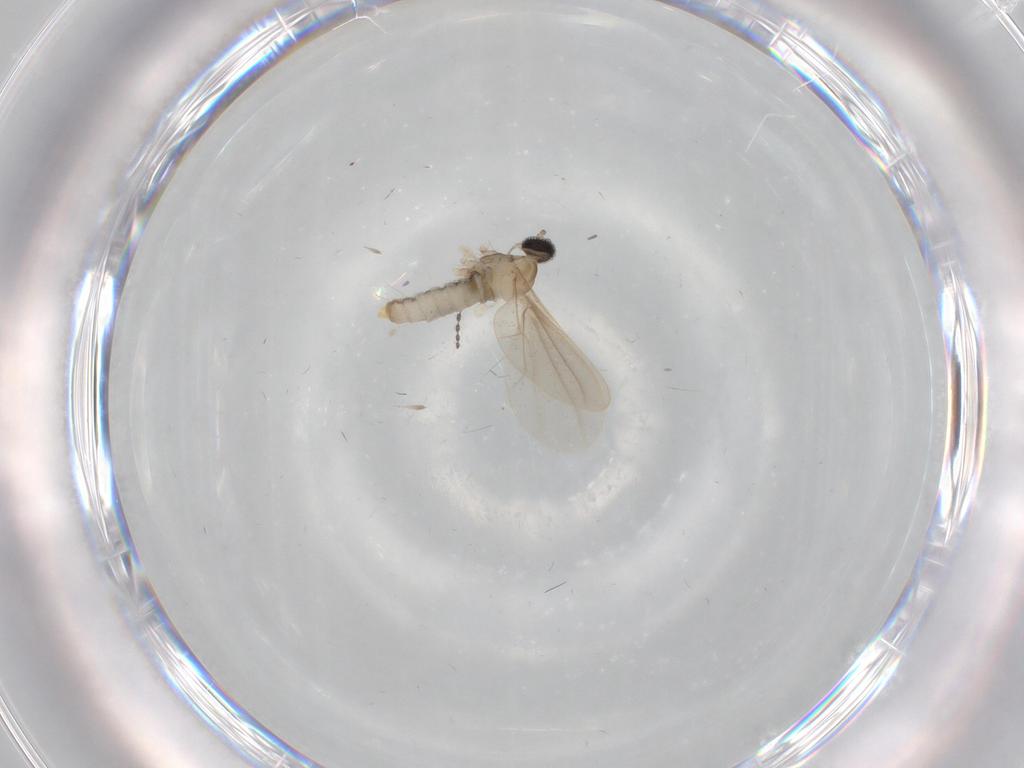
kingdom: Animalia
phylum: Arthropoda
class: Insecta
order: Diptera
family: Cecidomyiidae
